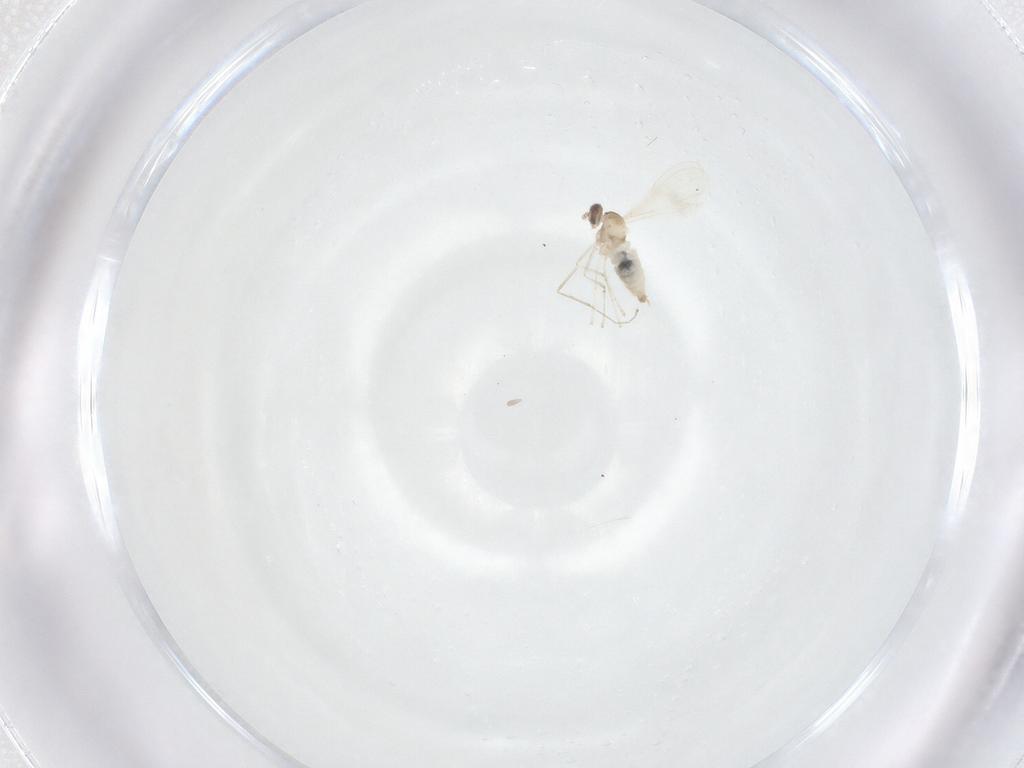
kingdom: Animalia
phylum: Arthropoda
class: Insecta
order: Diptera
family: Ceratopogonidae
